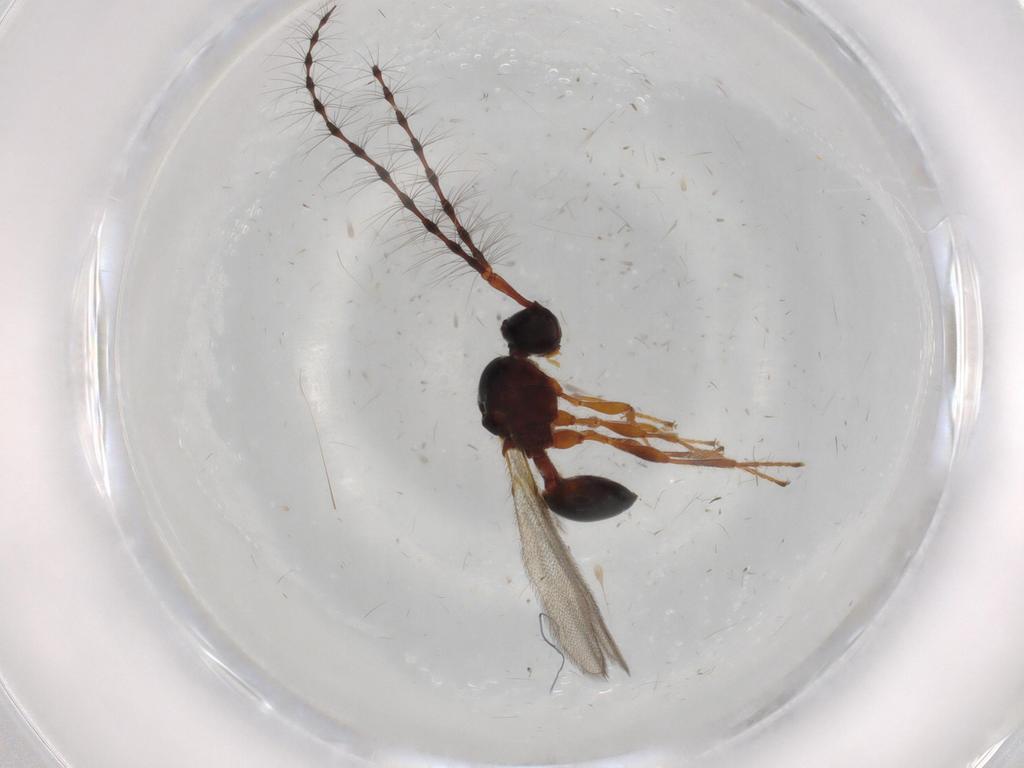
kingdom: Animalia
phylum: Arthropoda
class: Insecta
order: Hymenoptera
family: Diapriidae
